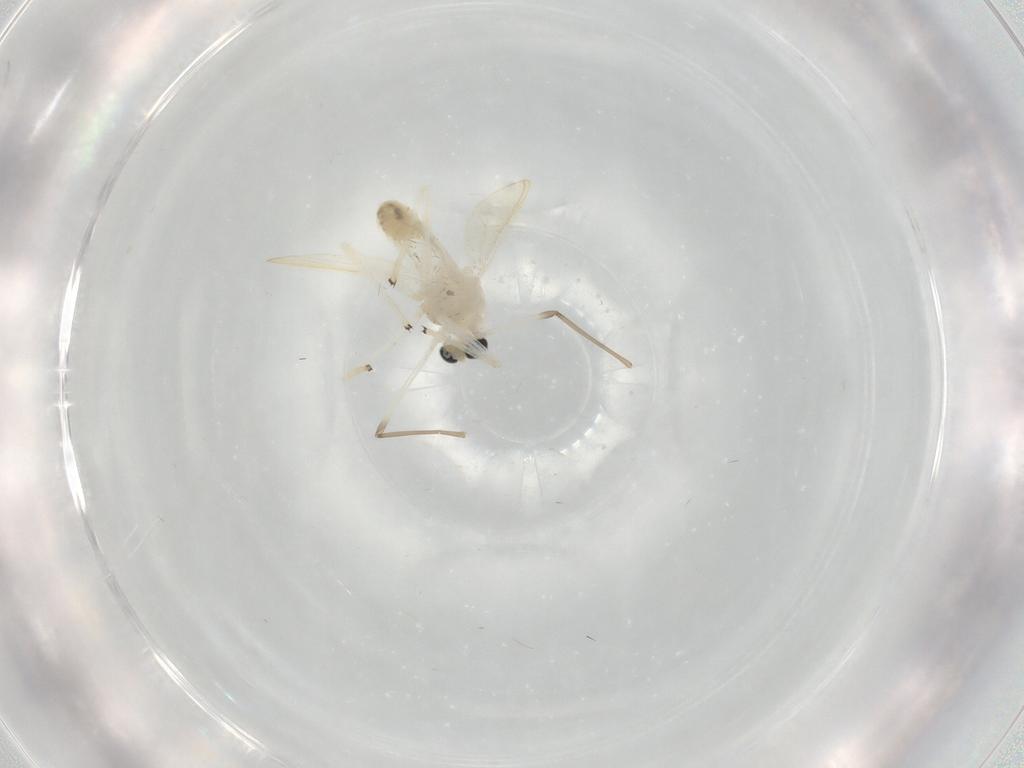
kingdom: Animalia
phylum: Arthropoda
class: Insecta
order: Diptera
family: Chironomidae
